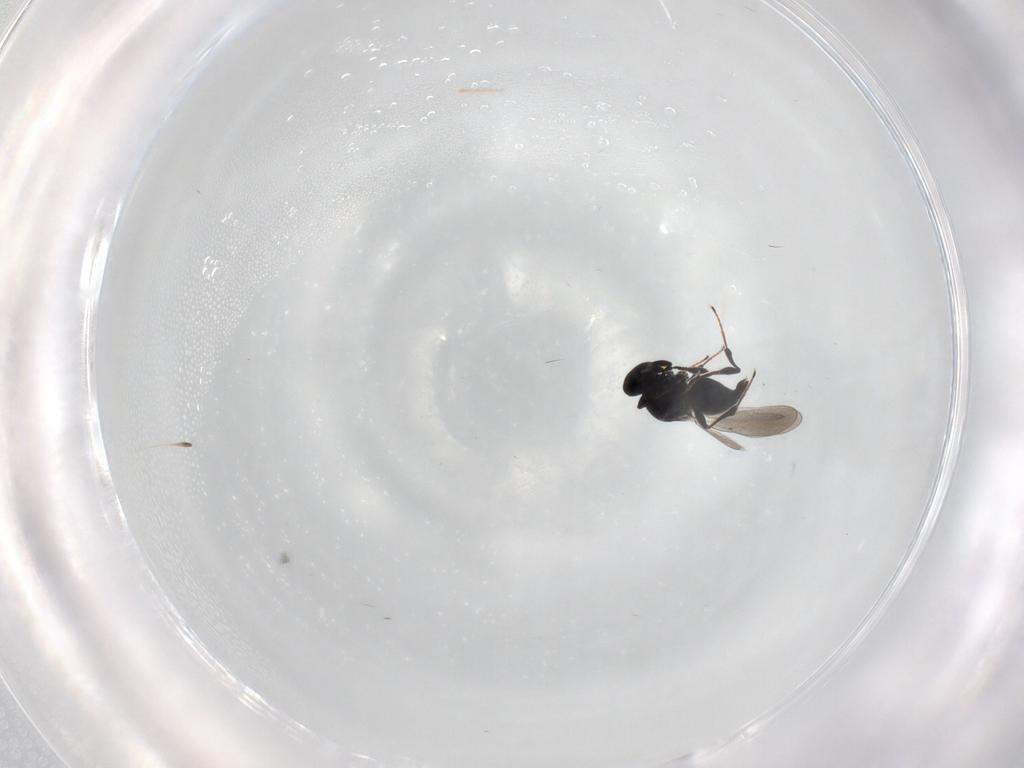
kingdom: Animalia
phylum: Arthropoda
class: Insecta
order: Hymenoptera
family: Platygastridae
